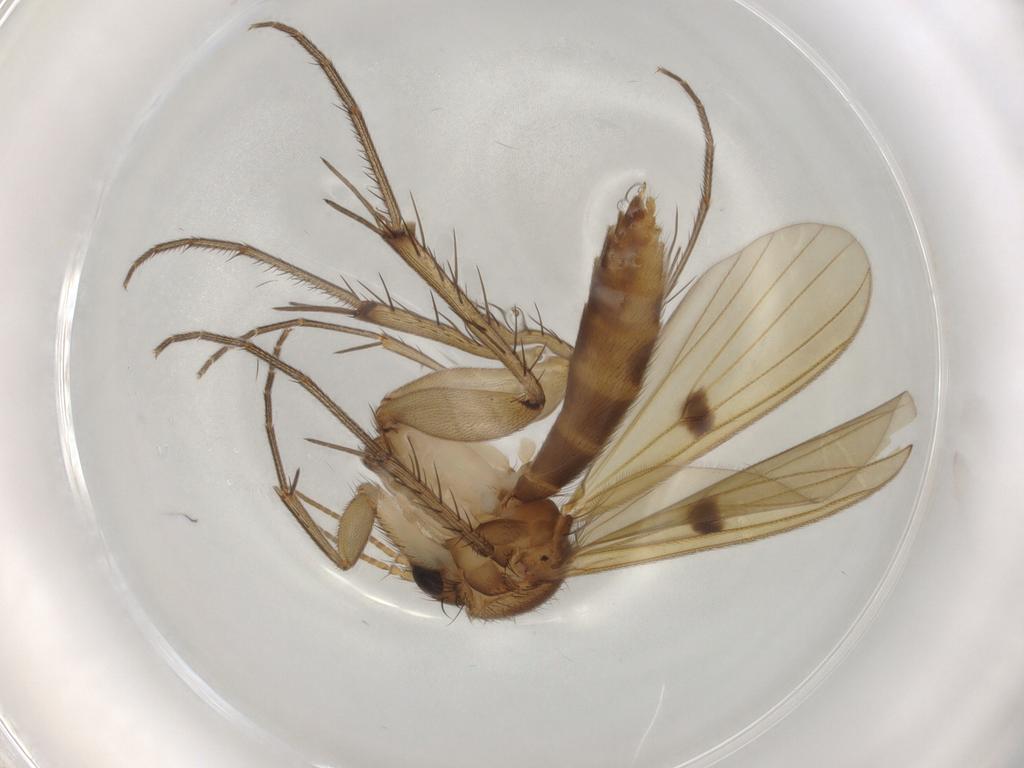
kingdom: Animalia
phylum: Arthropoda
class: Insecta
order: Diptera
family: Mycetophilidae
